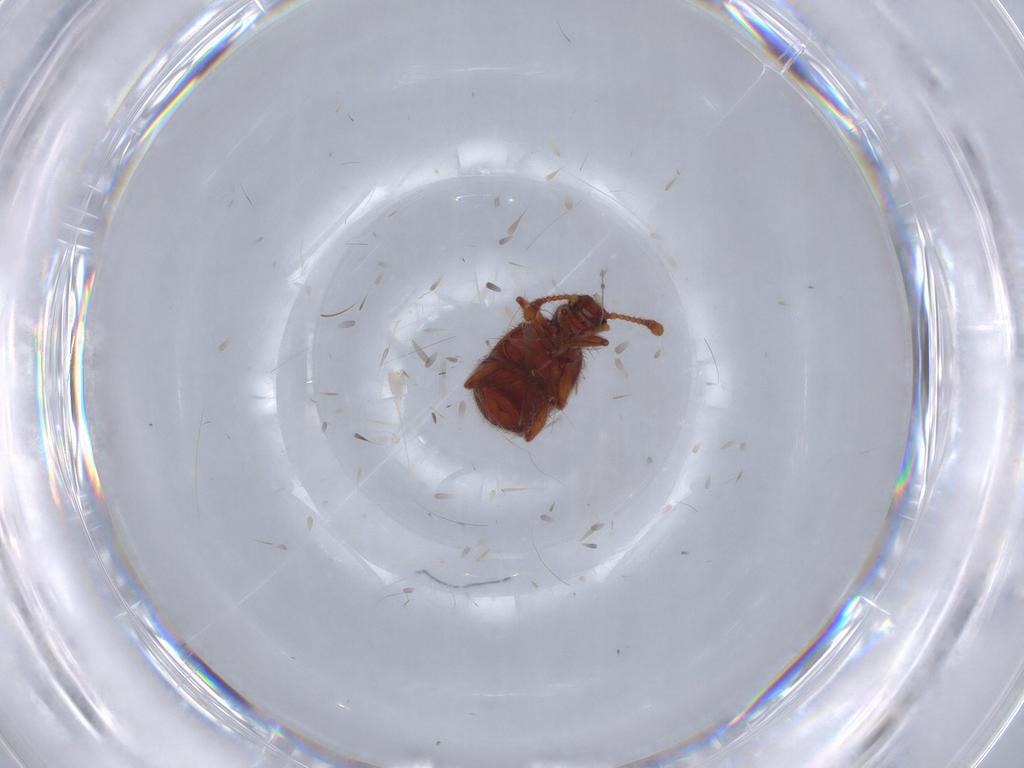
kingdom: Animalia
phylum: Arthropoda
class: Insecta
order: Coleoptera
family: Staphylinidae
